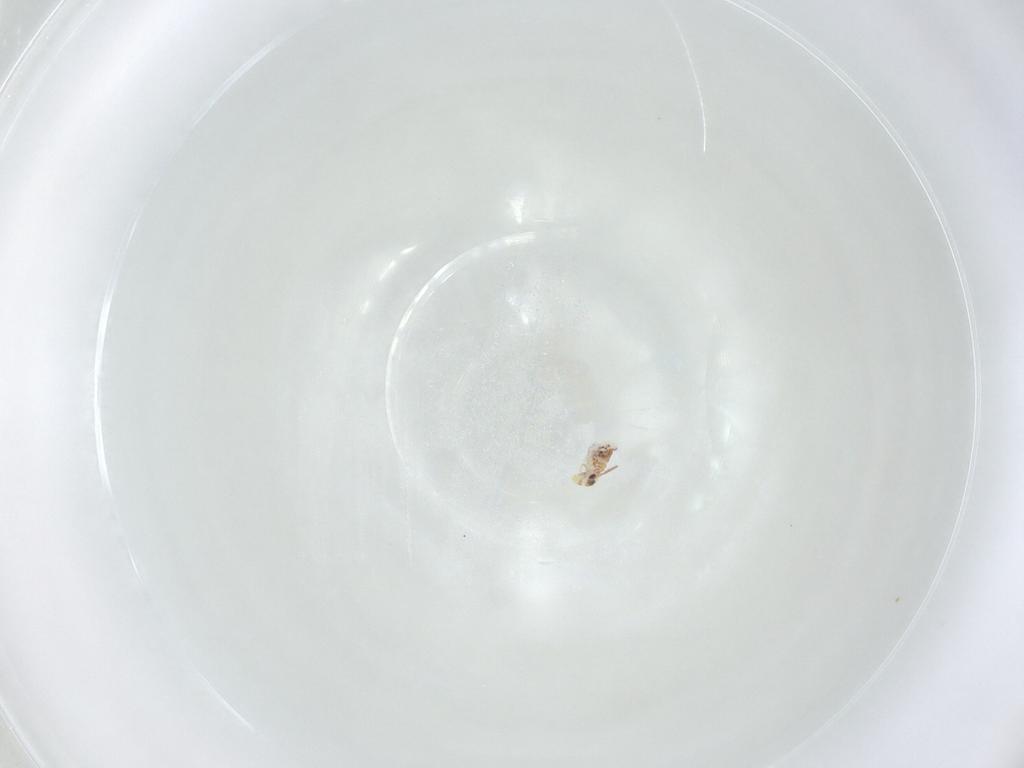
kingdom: Animalia
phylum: Arthropoda
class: Collembola
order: Symphypleona
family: Bourletiellidae
